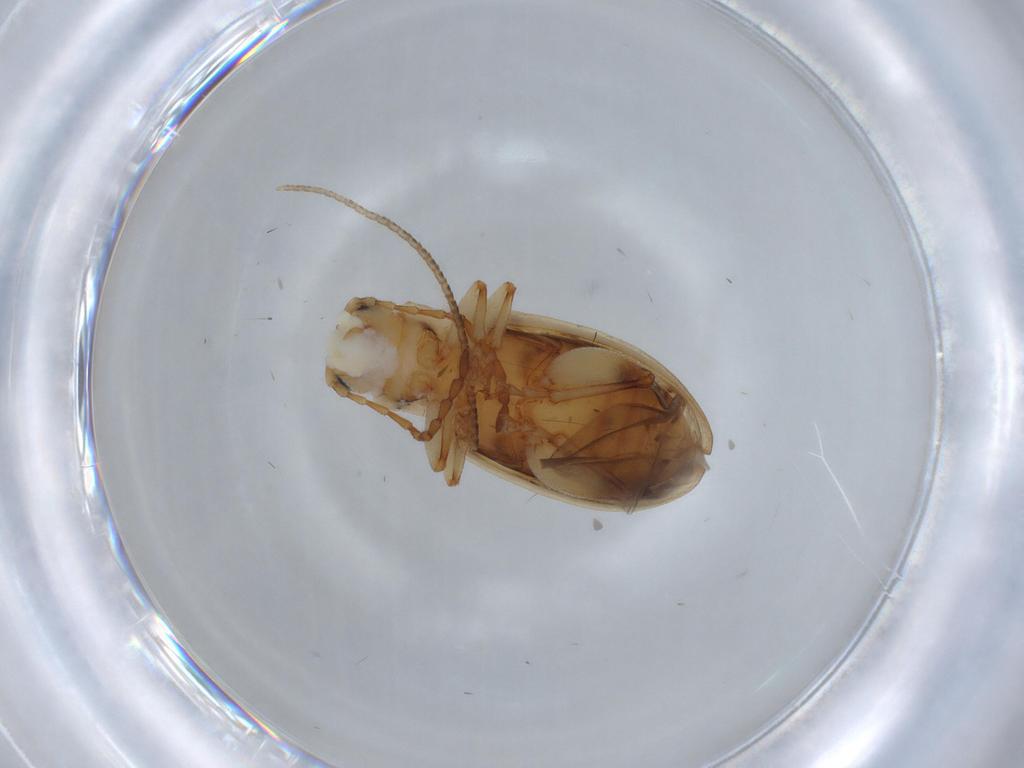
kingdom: Animalia
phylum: Arthropoda
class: Insecta
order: Coleoptera
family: Chrysomelidae
